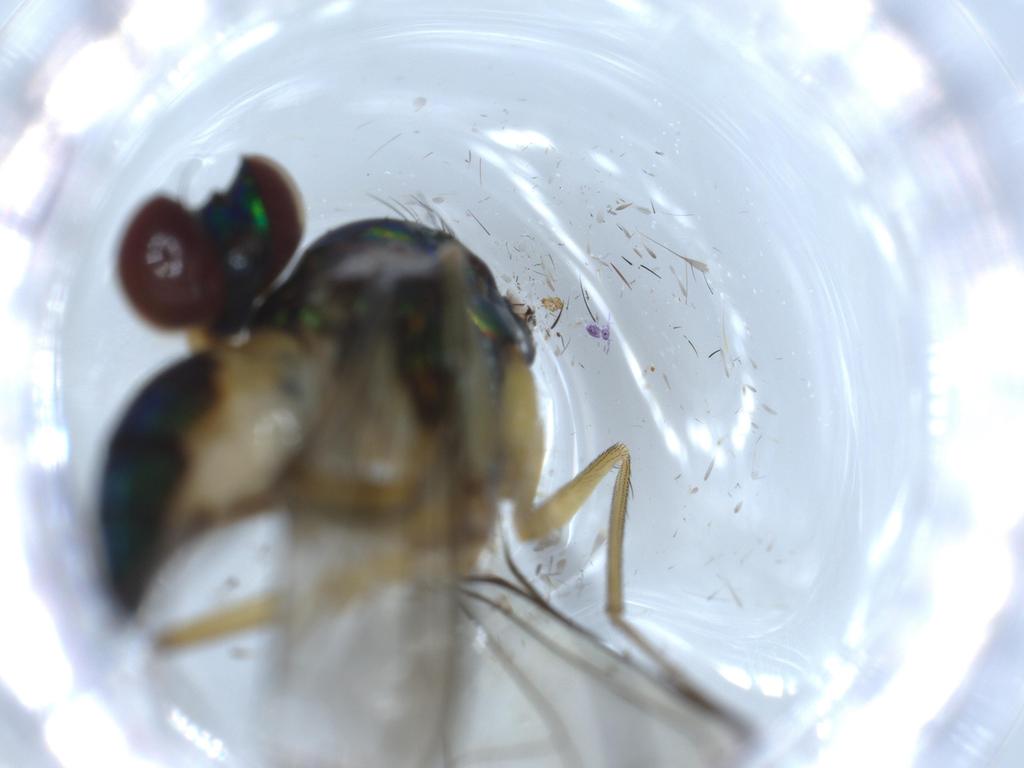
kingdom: Animalia
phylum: Arthropoda
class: Insecta
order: Diptera
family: Dolichopodidae
